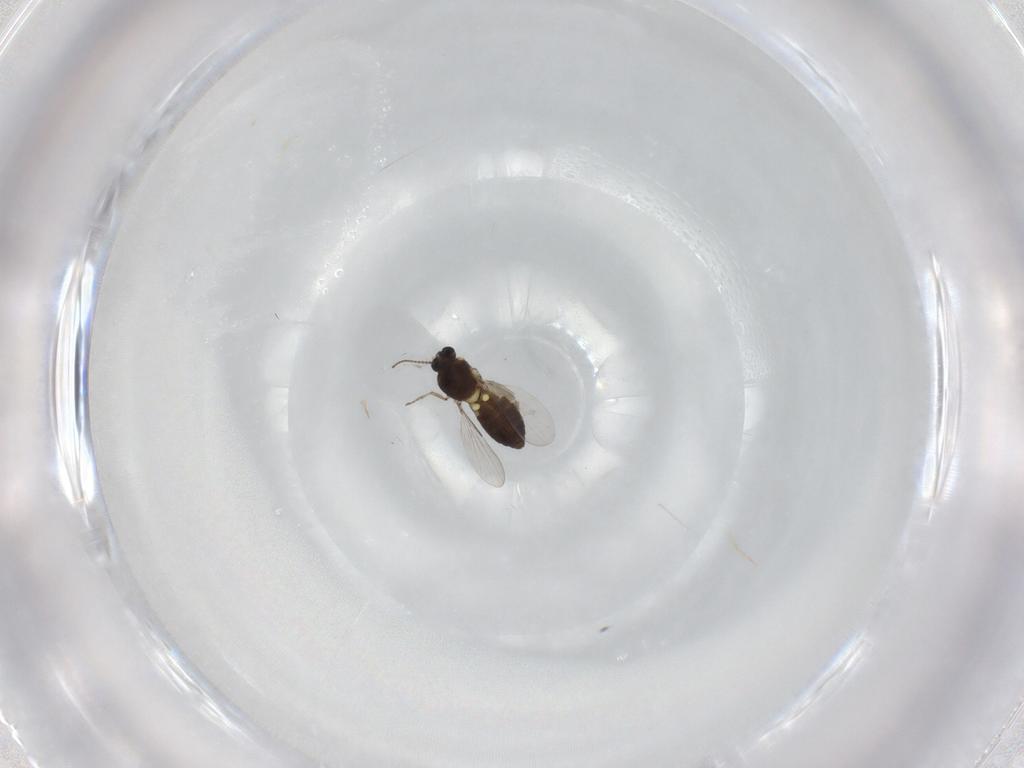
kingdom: Animalia
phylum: Arthropoda
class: Insecta
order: Diptera
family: Ceratopogonidae
